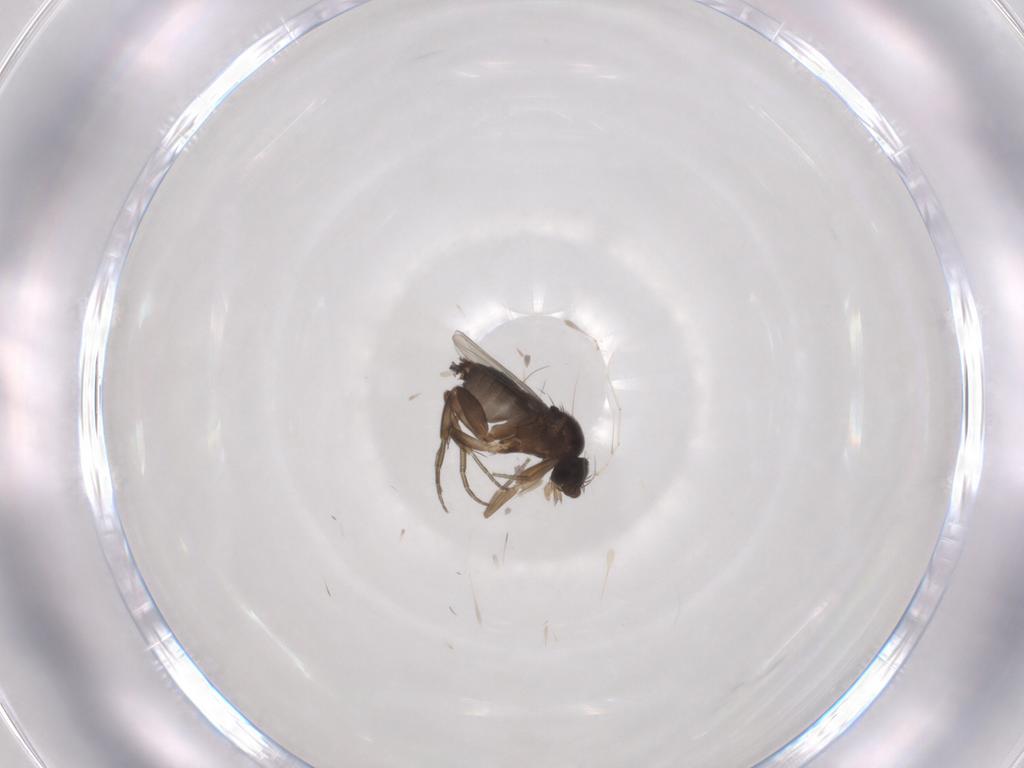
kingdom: Animalia
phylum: Arthropoda
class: Insecta
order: Diptera
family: Phoridae
